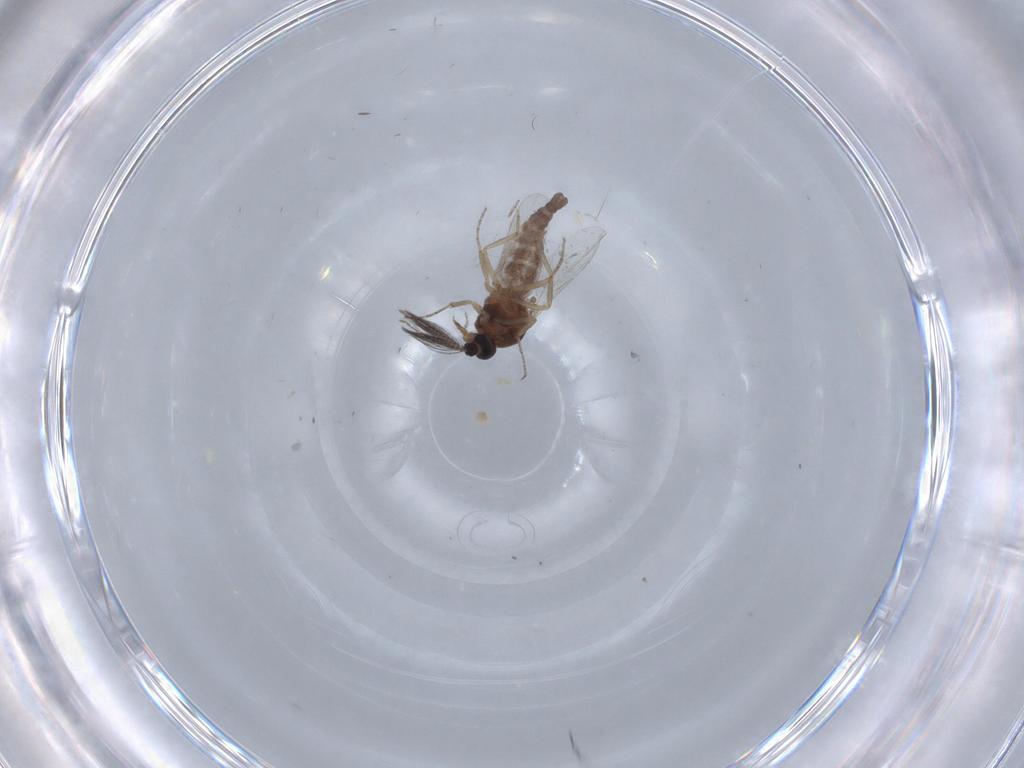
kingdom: Animalia
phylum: Arthropoda
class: Insecta
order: Diptera
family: Ceratopogonidae
